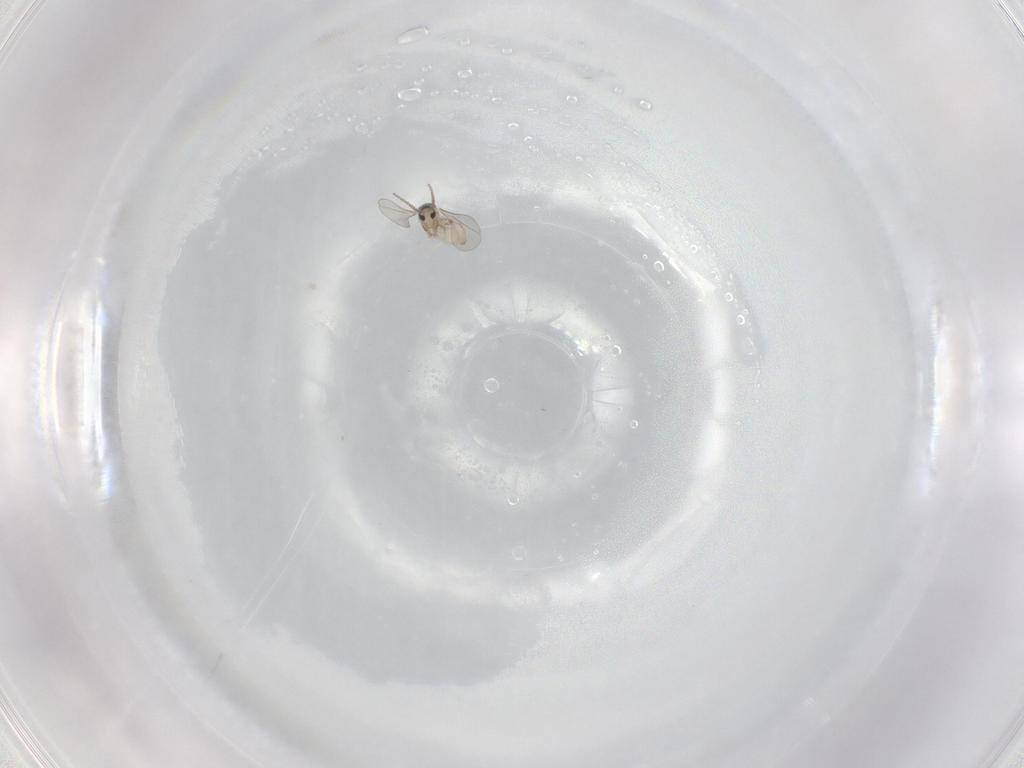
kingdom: Animalia
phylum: Arthropoda
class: Insecta
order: Diptera
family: Cecidomyiidae
